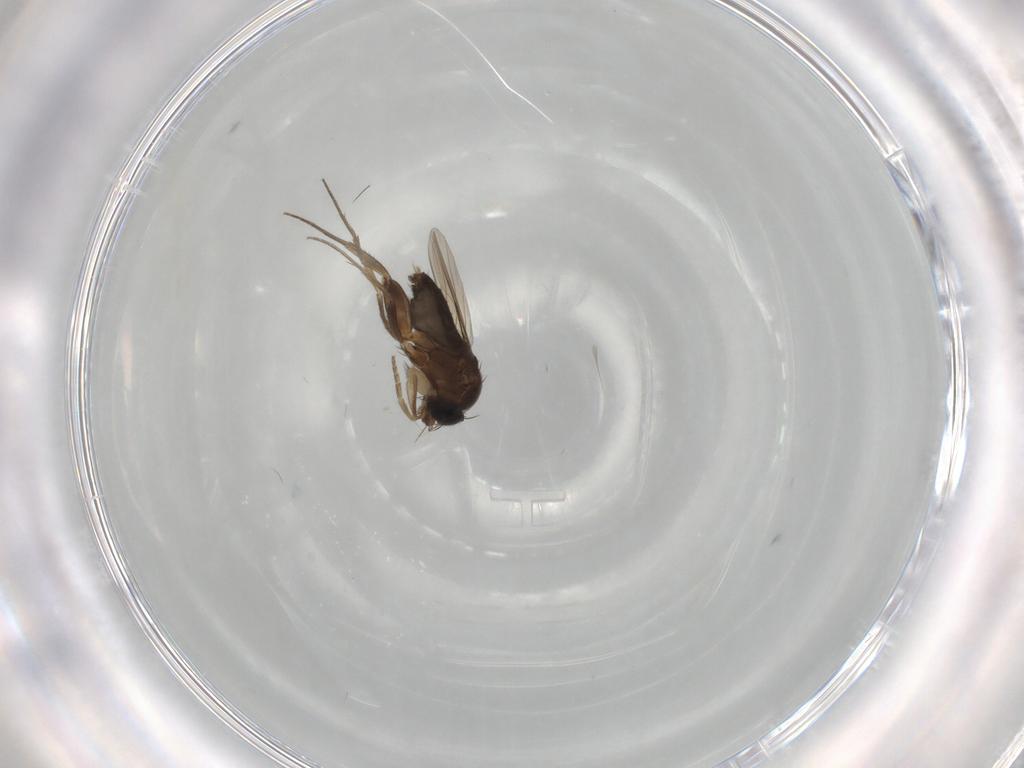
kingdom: Animalia
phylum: Arthropoda
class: Insecta
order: Diptera
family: Phoridae
